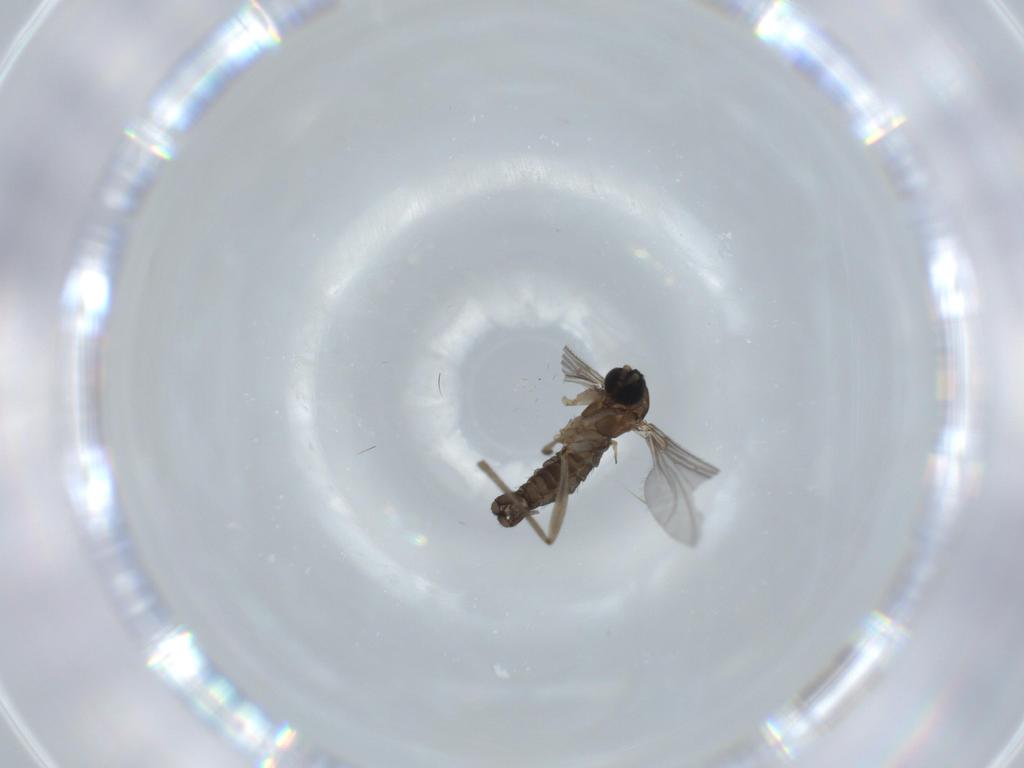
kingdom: Animalia
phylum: Arthropoda
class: Insecta
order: Diptera
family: Sciaridae
